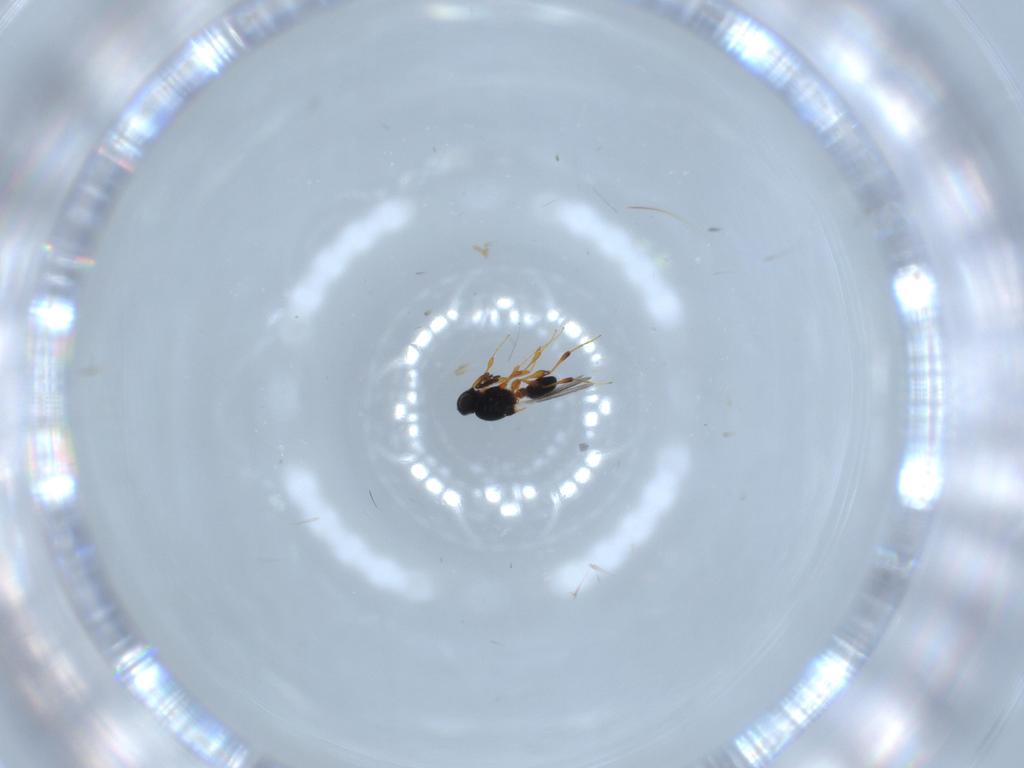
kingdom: Animalia
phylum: Arthropoda
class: Insecta
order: Hymenoptera
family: Platygastridae
